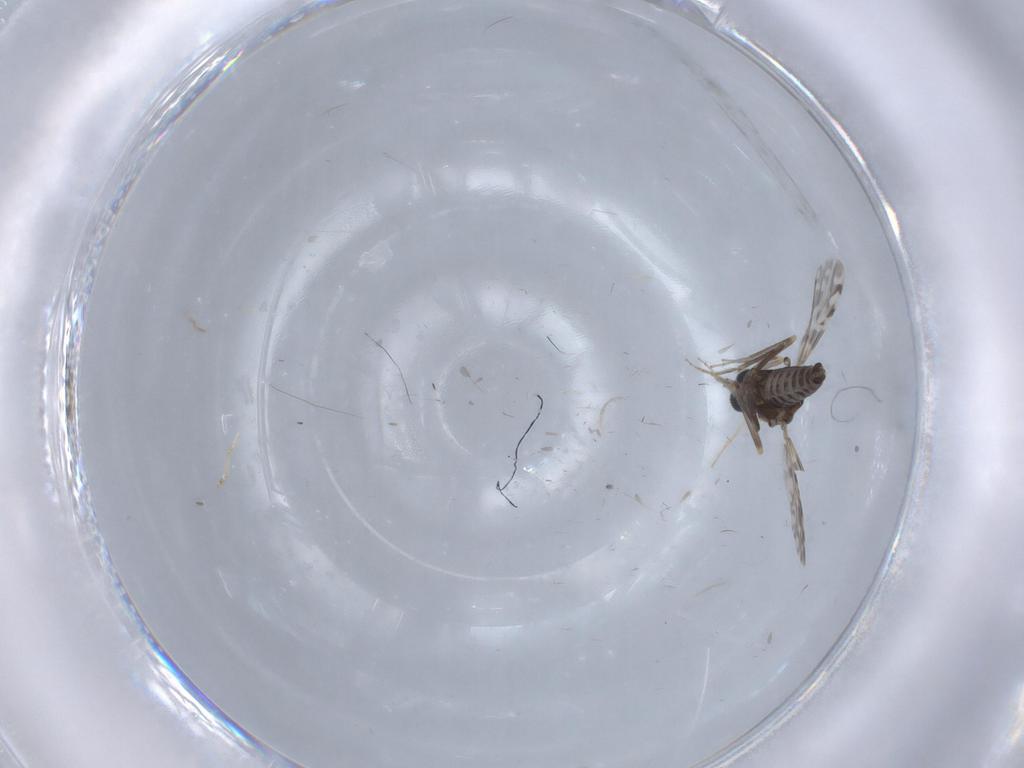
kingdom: Animalia
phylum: Arthropoda
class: Insecta
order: Diptera
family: Ceratopogonidae
